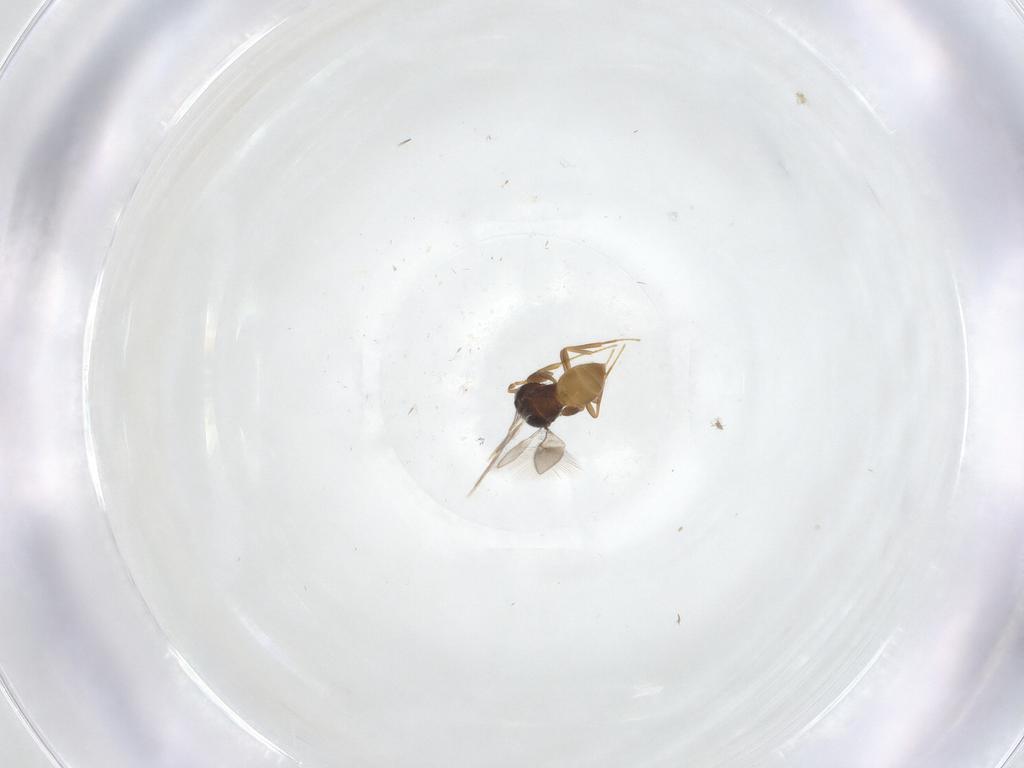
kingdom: Animalia
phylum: Arthropoda
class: Insecta
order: Hymenoptera
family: Scelionidae
